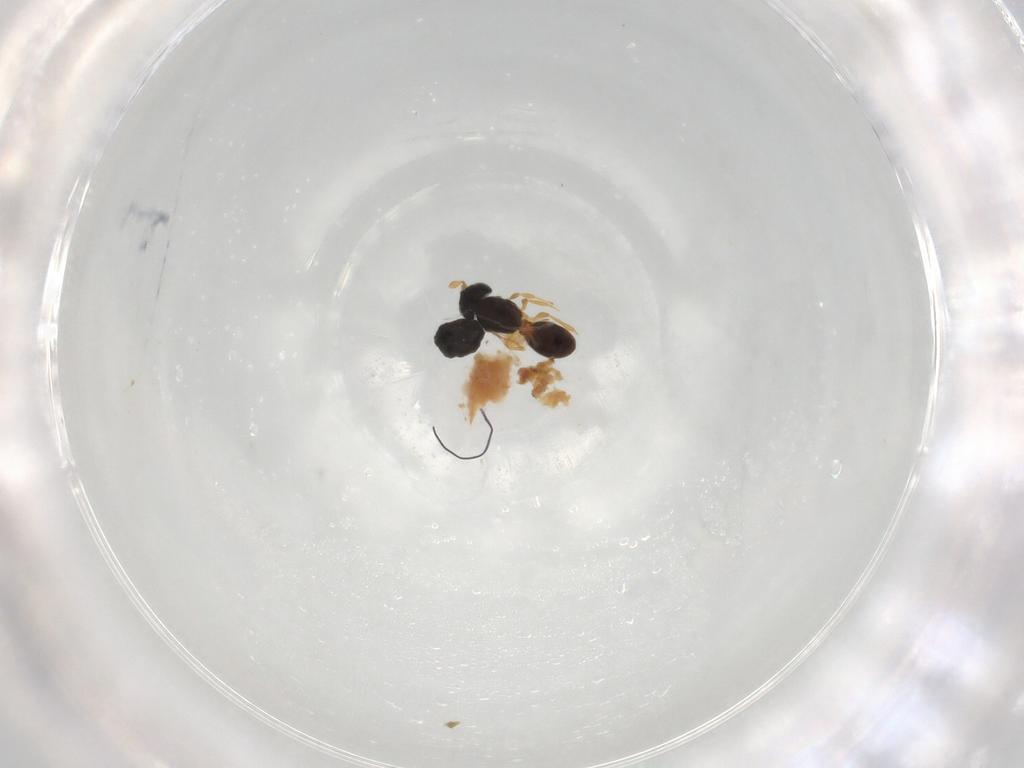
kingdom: Animalia
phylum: Arthropoda
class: Insecta
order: Hymenoptera
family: Scelionidae
